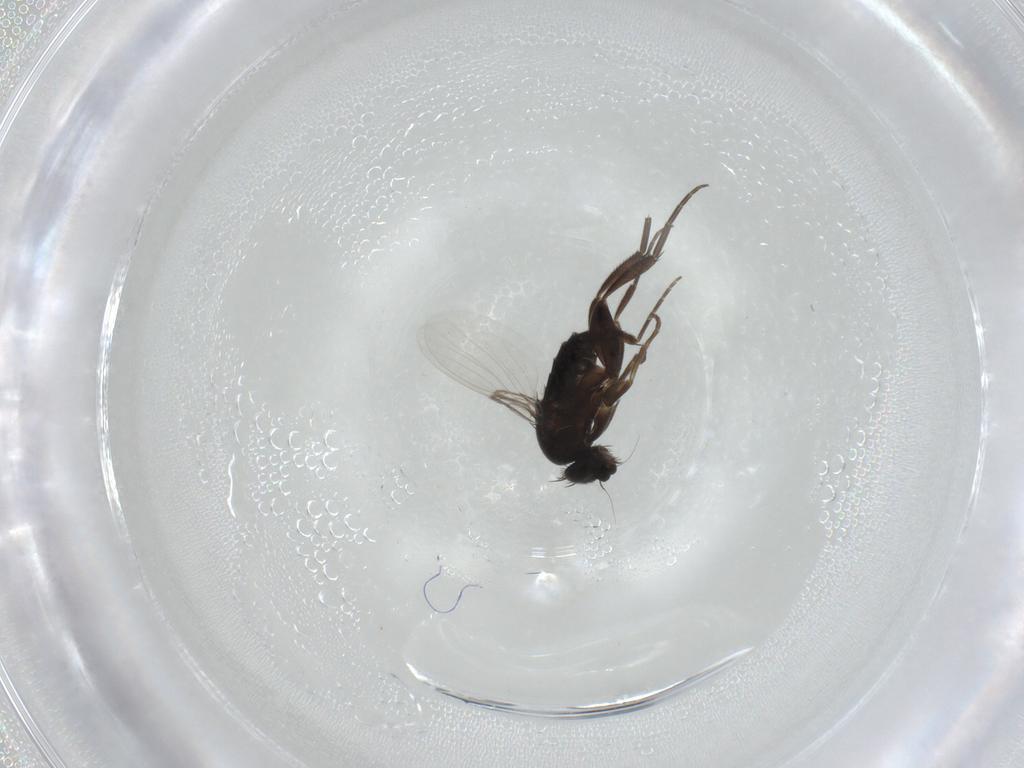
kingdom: Animalia
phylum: Arthropoda
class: Insecta
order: Diptera
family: Phoridae
